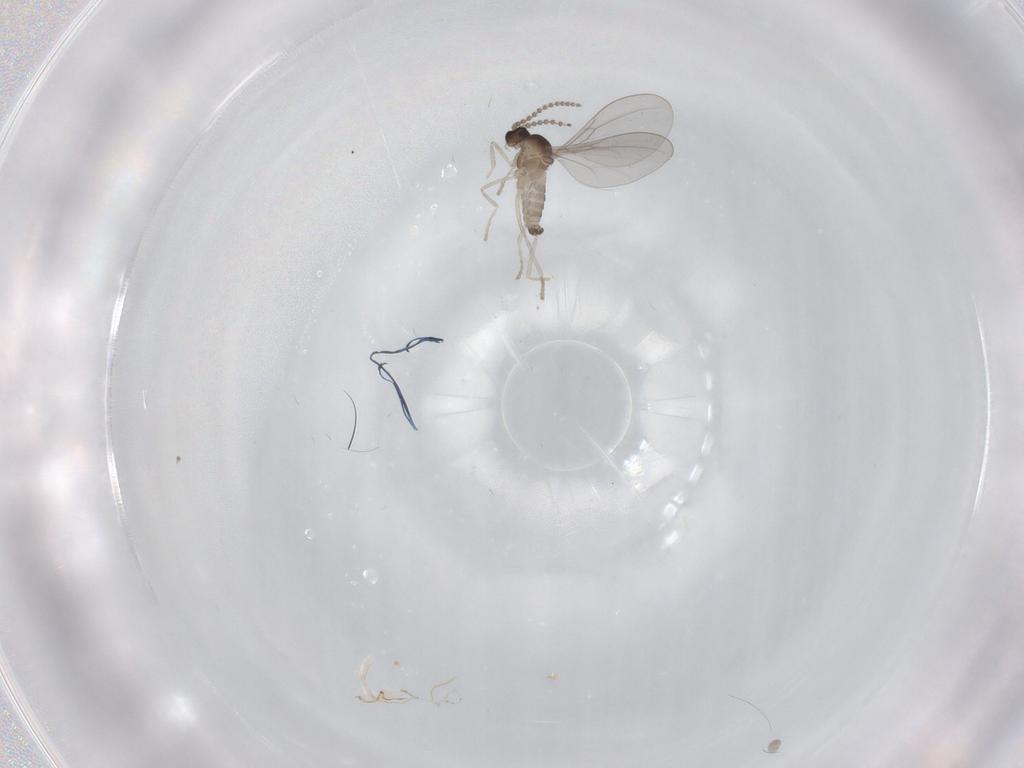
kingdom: Animalia
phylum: Arthropoda
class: Insecta
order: Diptera
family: Cecidomyiidae
